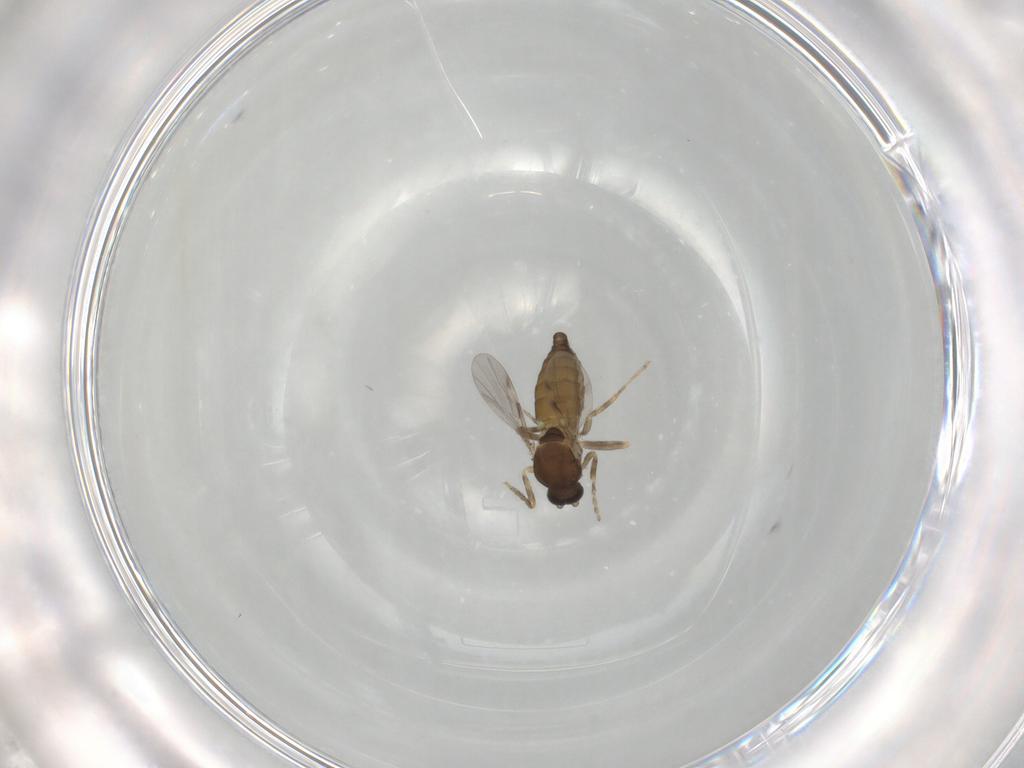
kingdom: Animalia
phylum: Arthropoda
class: Insecta
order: Diptera
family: Ceratopogonidae
